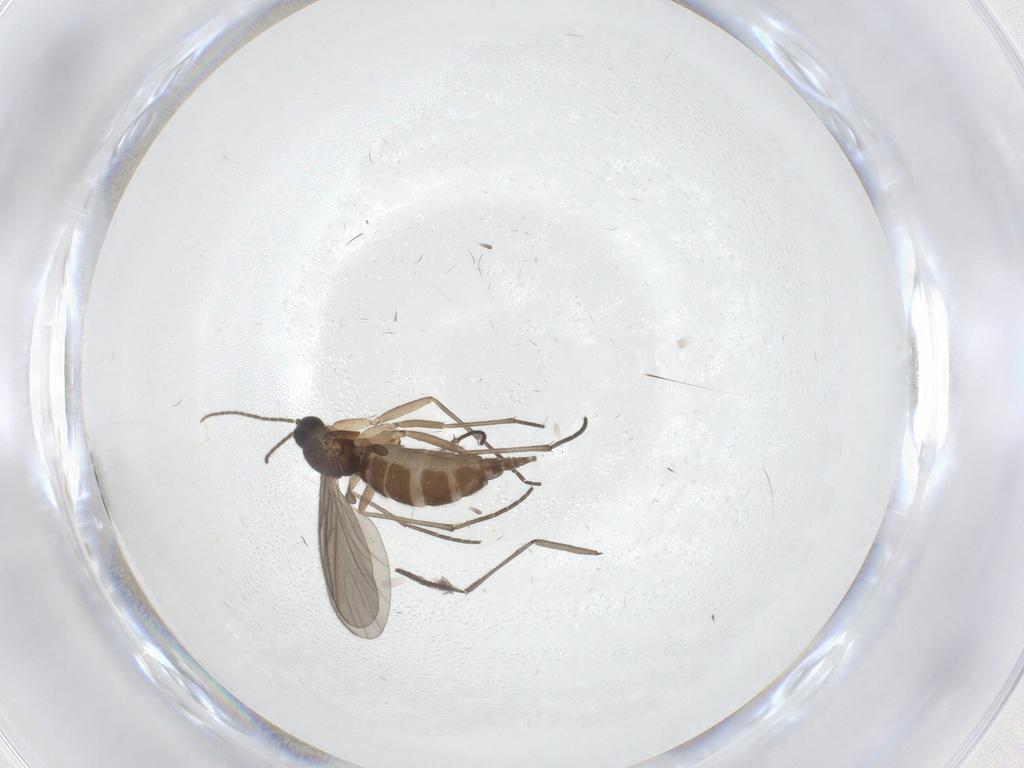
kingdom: Animalia
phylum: Arthropoda
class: Insecta
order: Diptera
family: Sciaridae
